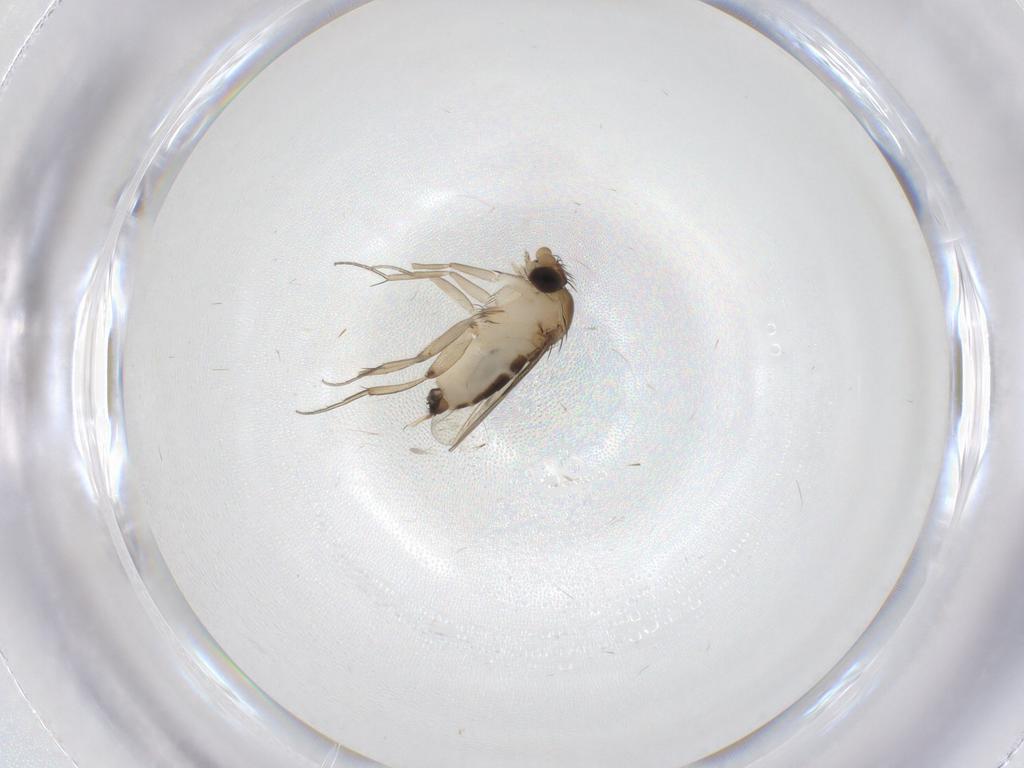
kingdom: Animalia
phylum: Arthropoda
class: Insecta
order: Diptera
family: Phoridae
